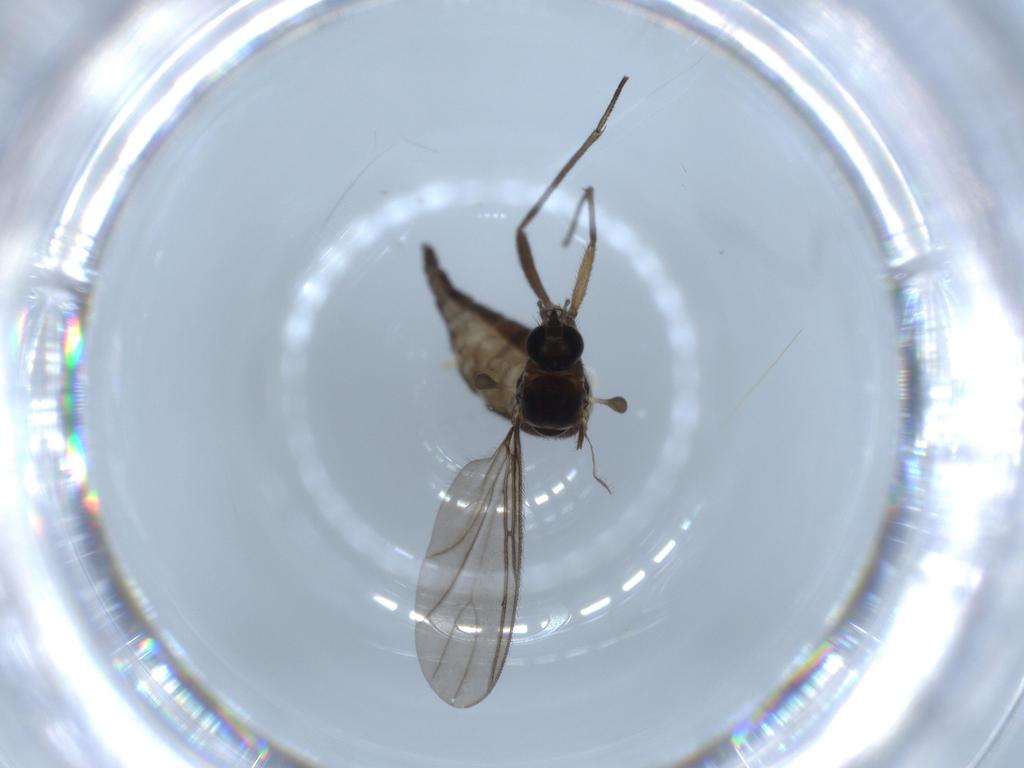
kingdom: Animalia
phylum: Arthropoda
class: Insecta
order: Diptera
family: Sciaridae
